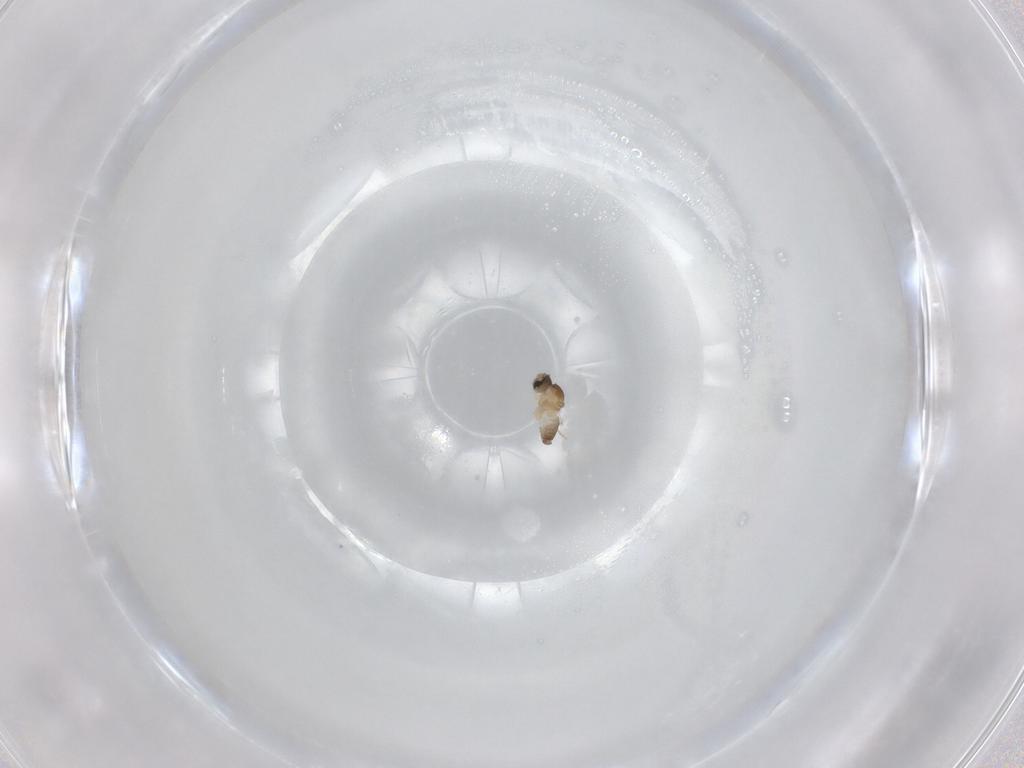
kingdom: Animalia
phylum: Arthropoda
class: Insecta
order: Diptera
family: Cecidomyiidae
